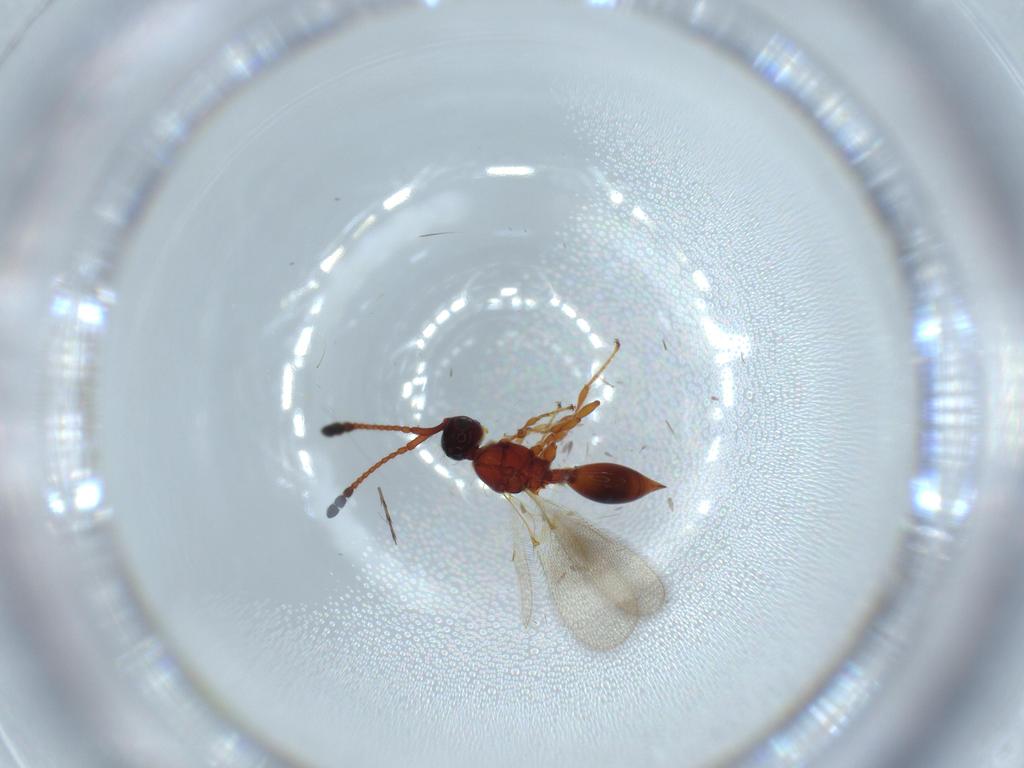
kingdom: Animalia
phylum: Arthropoda
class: Insecta
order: Hymenoptera
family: Diapriidae
